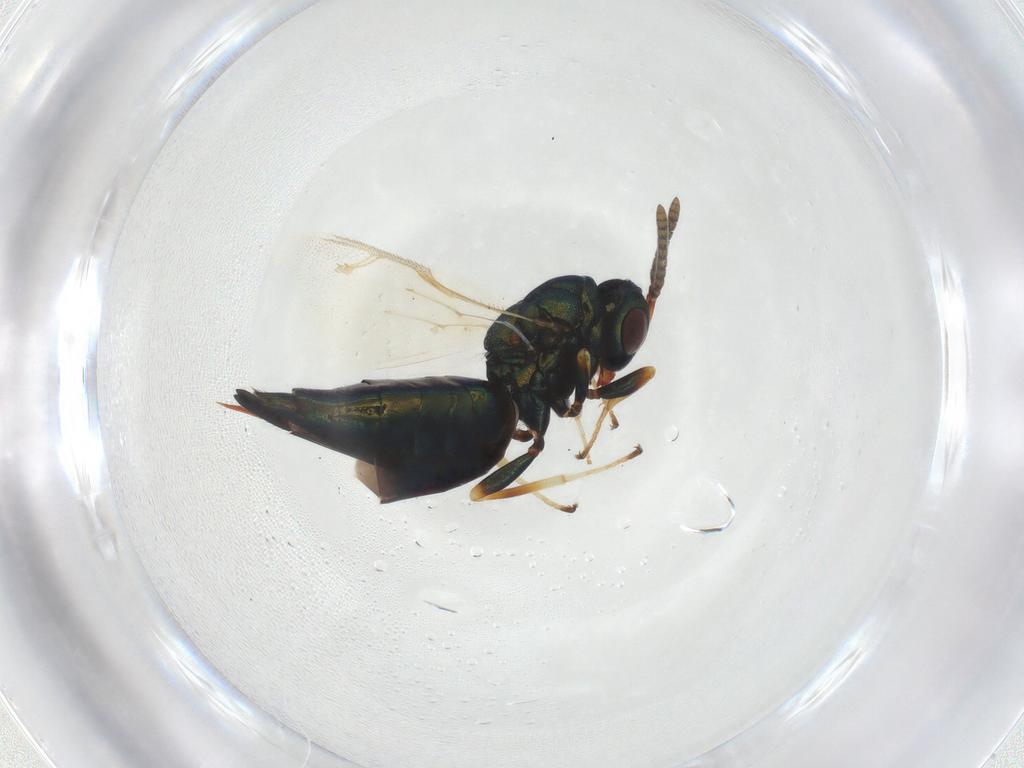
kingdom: Animalia
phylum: Arthropoda
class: Insecta
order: Hymenoptera
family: Pteromalidae
